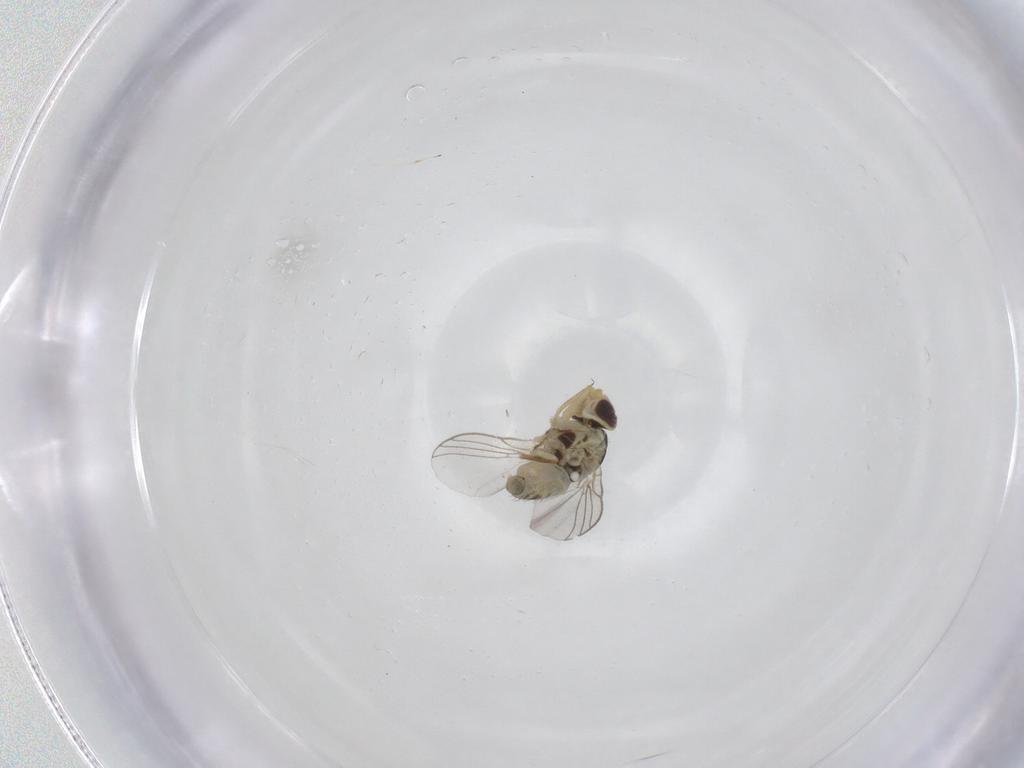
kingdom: Animalia
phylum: Arthropoda
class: Insecta
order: Diptera
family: Agromyzidae
